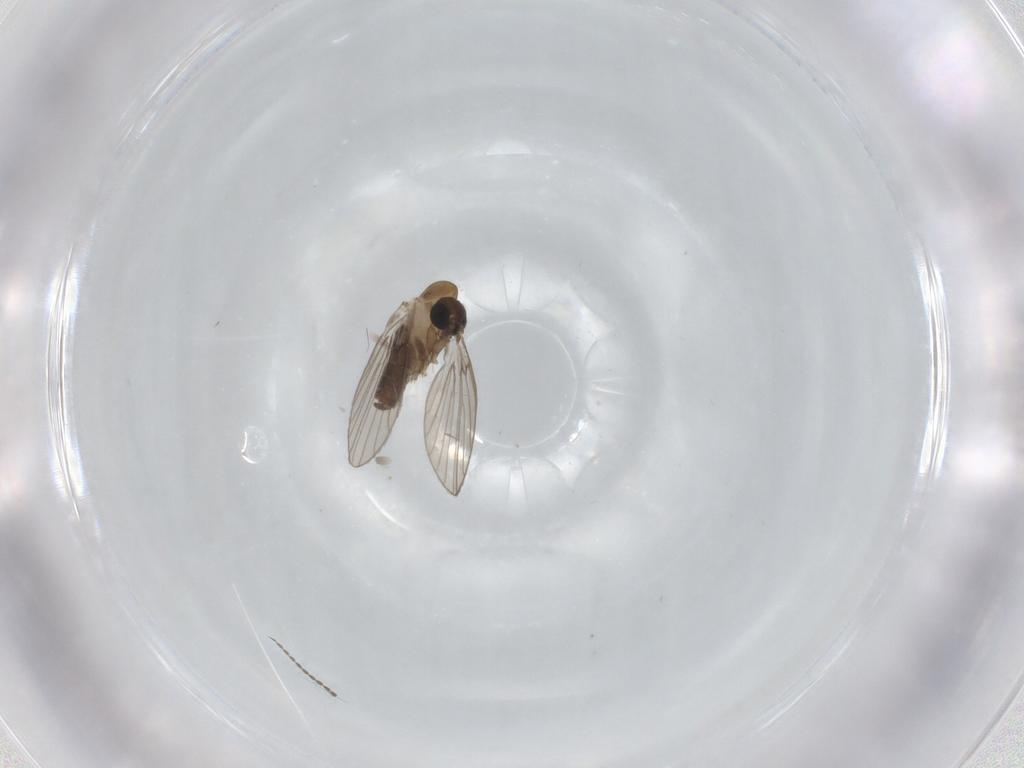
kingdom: Animalia
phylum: Arthropoda
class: Insecta
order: Diptera
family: Psychodidae
